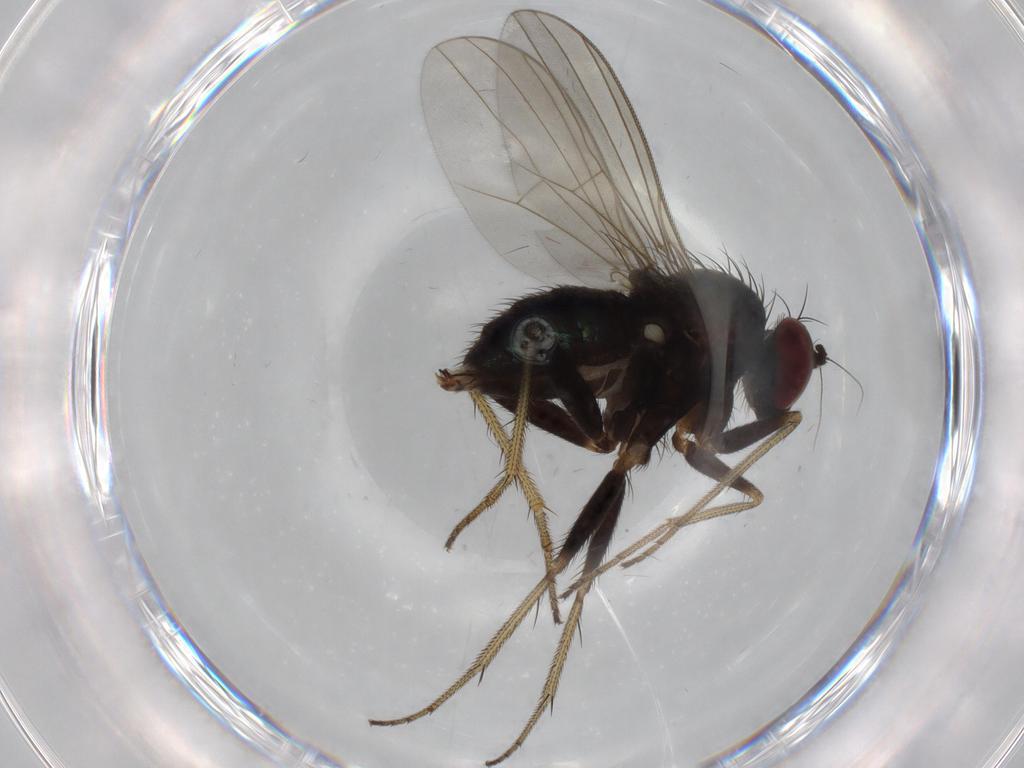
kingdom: Animalia
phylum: Arthropoda
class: Insecta
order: Diptera
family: Dolichopodidae
